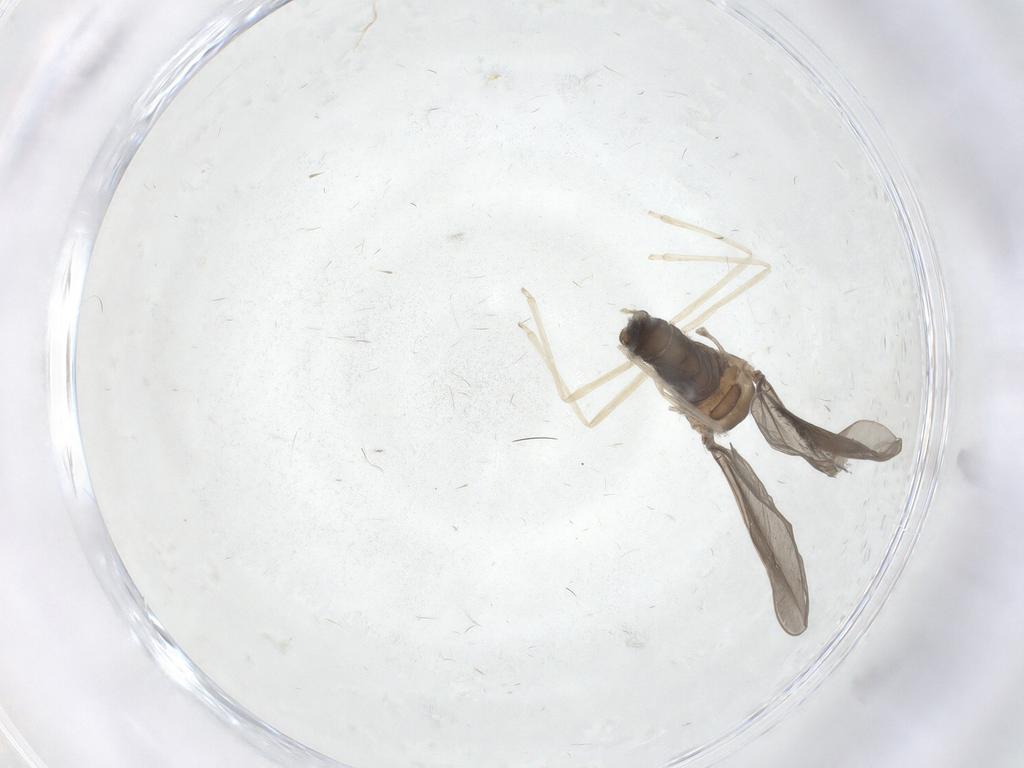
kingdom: Animalia
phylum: Arthropoda
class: Insecta
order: Diptera
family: Cecidomyiidae
